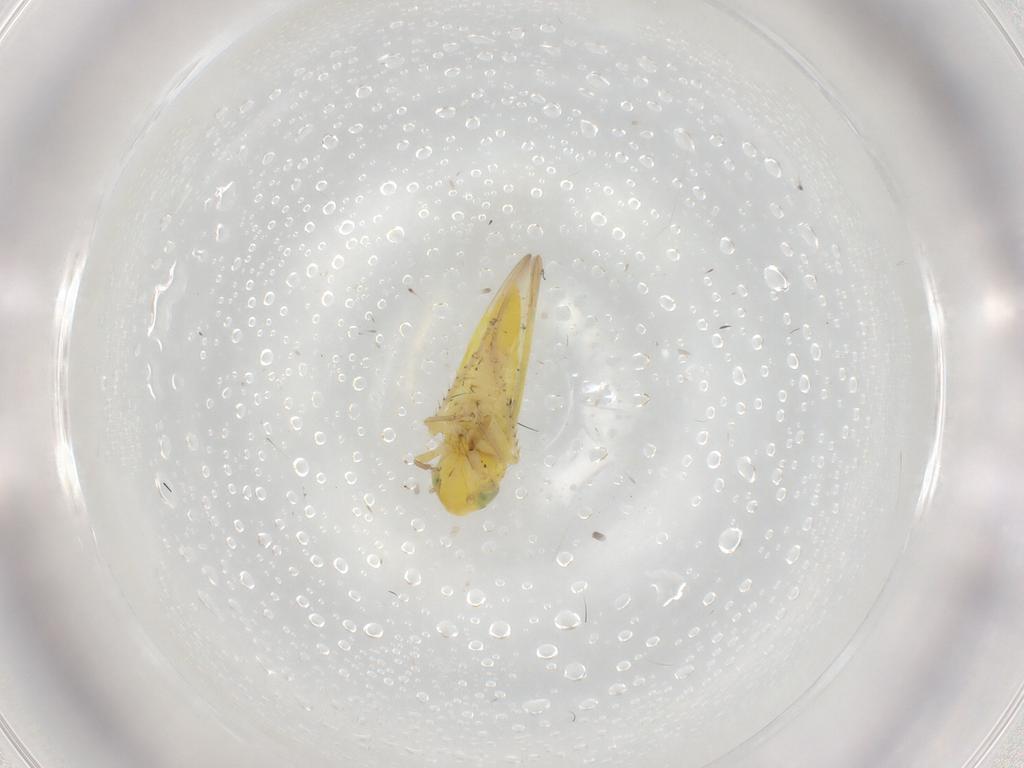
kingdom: Animalia
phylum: Arthropoda
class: Insecta
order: Hemiptera
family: Cicadellidae
